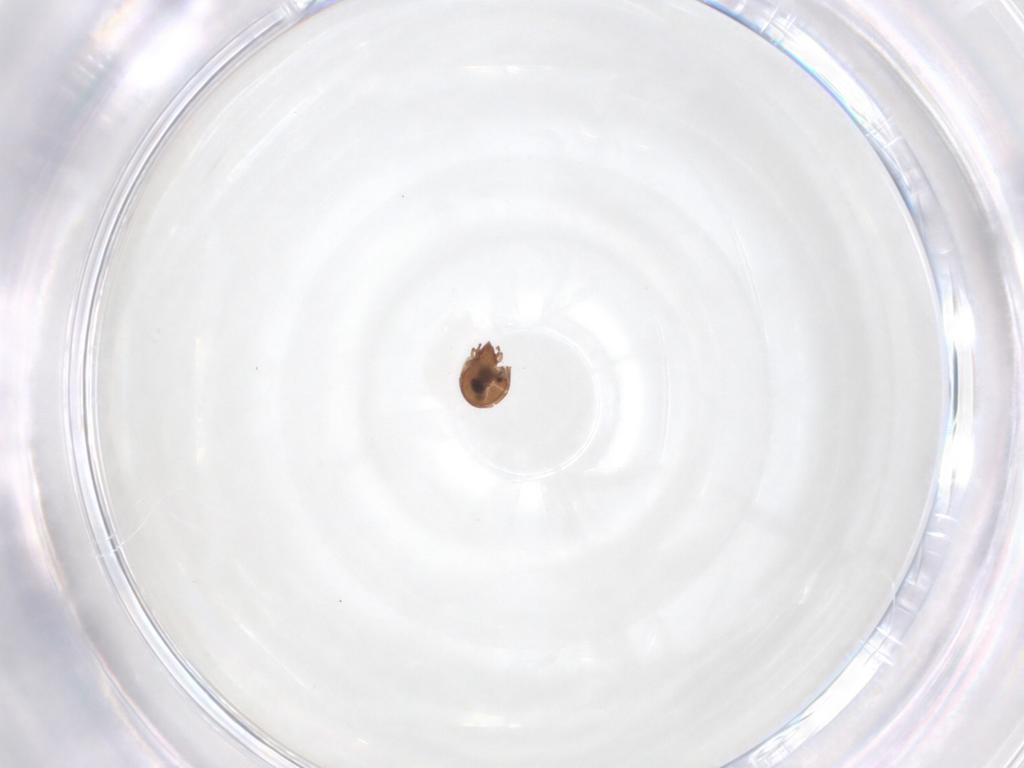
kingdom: Animalia
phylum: Arthropoda
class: Arachnida
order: Sarcoptiformes
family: Scheloribatidae
